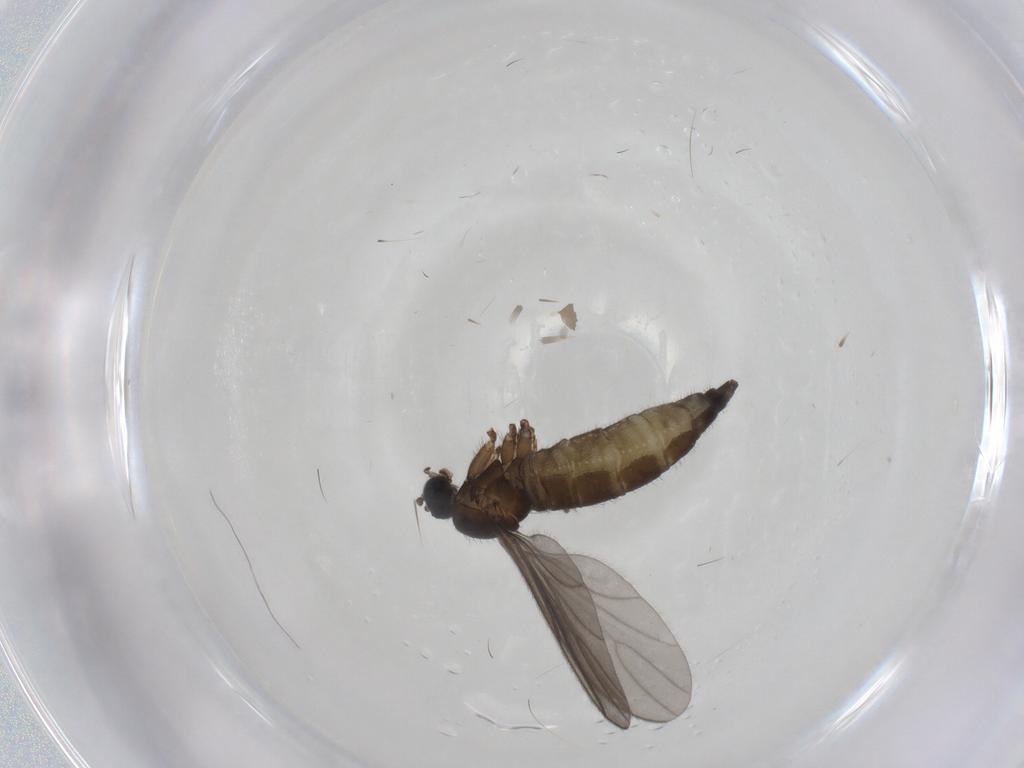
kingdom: Animalia
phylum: Arthropoda
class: Insecta
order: Diptera
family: Sciaridae
